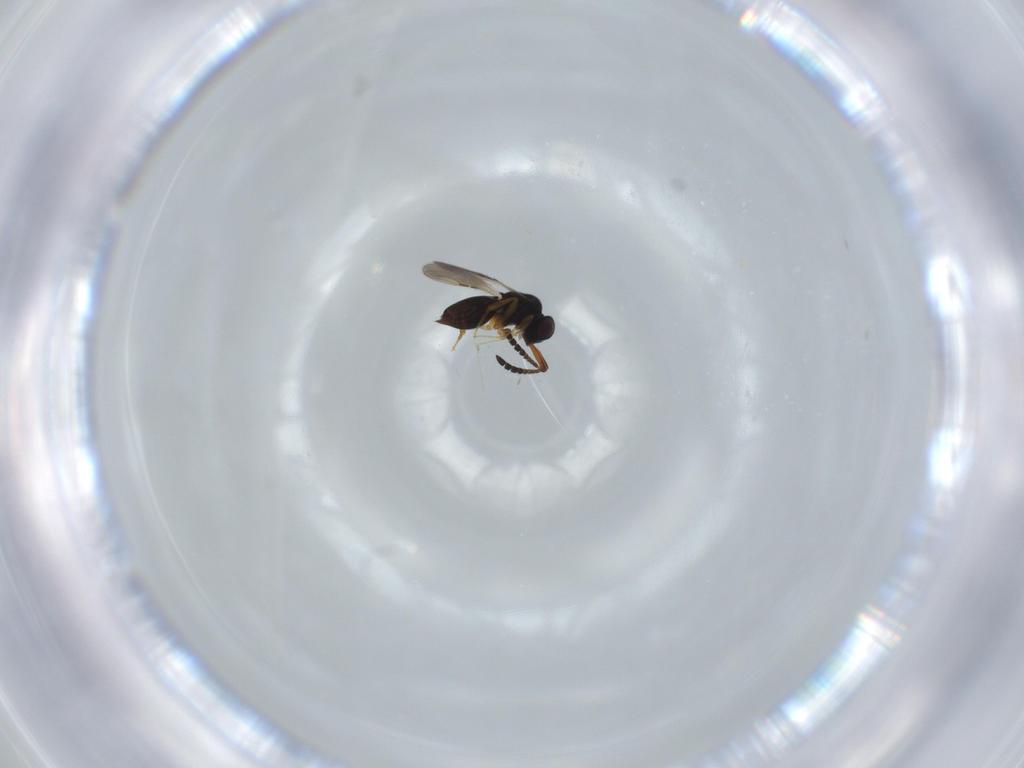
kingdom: Animalia
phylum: Arthropoda
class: Insecta
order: Hymenoptera
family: Ceraphronidae
